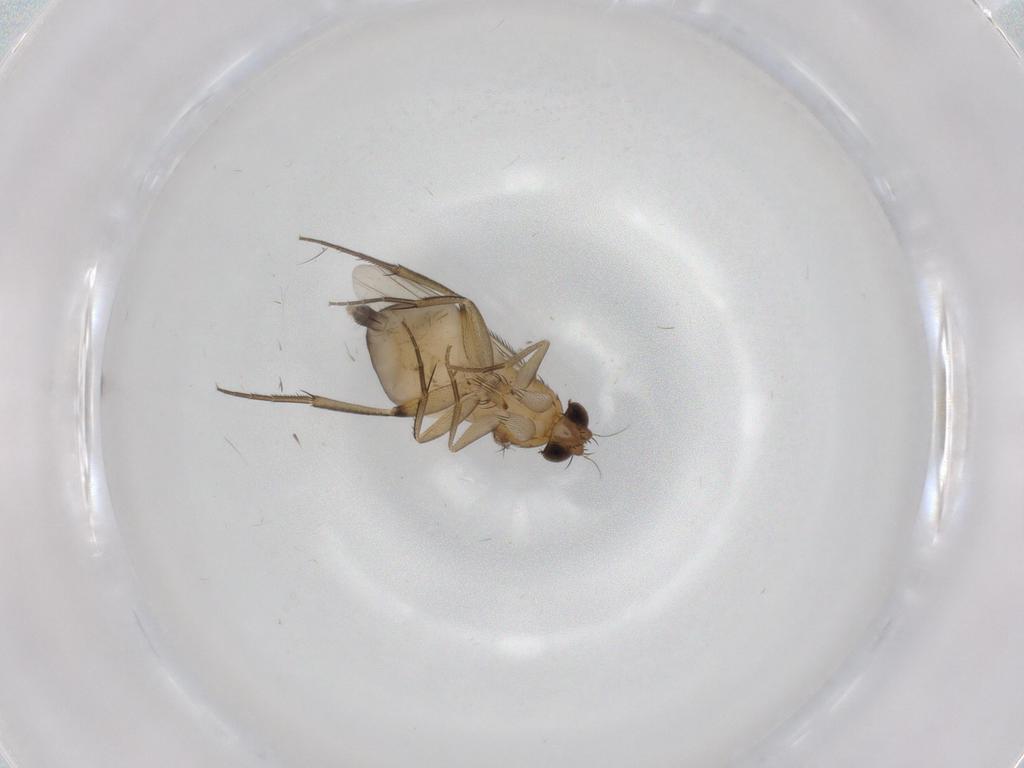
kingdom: Animalia
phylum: Arthropoda
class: Insecta
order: Diptera
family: Phoridae
